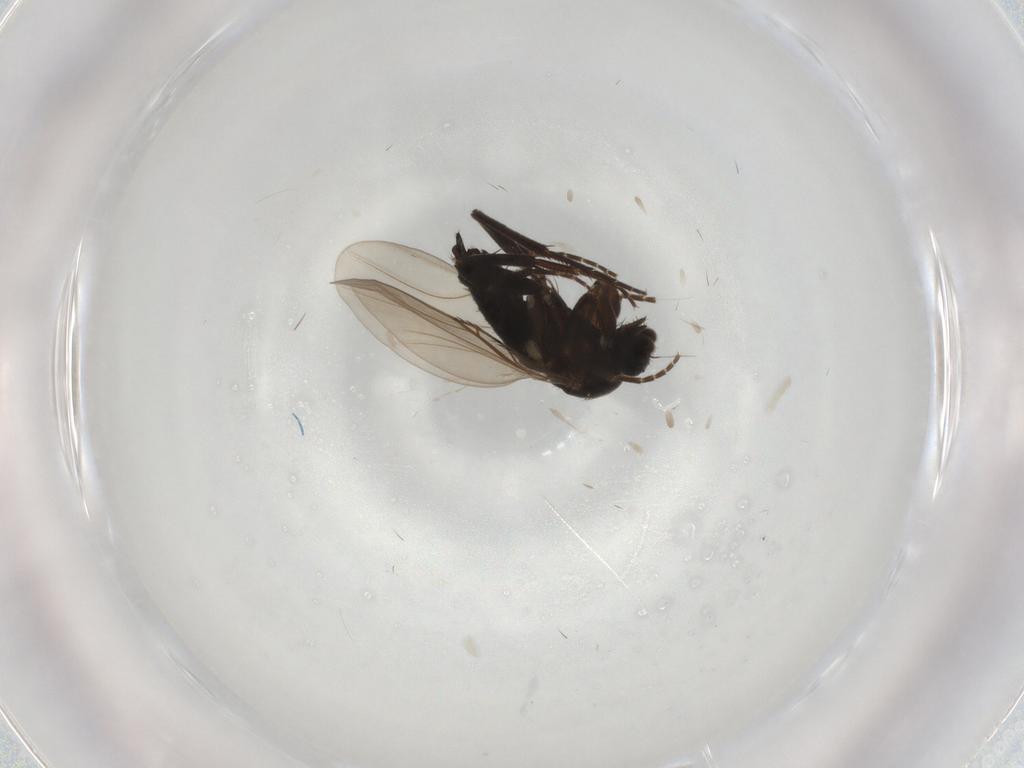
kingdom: Animalia
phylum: Arthropoda
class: Insecta
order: Diptera
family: Phoridae
